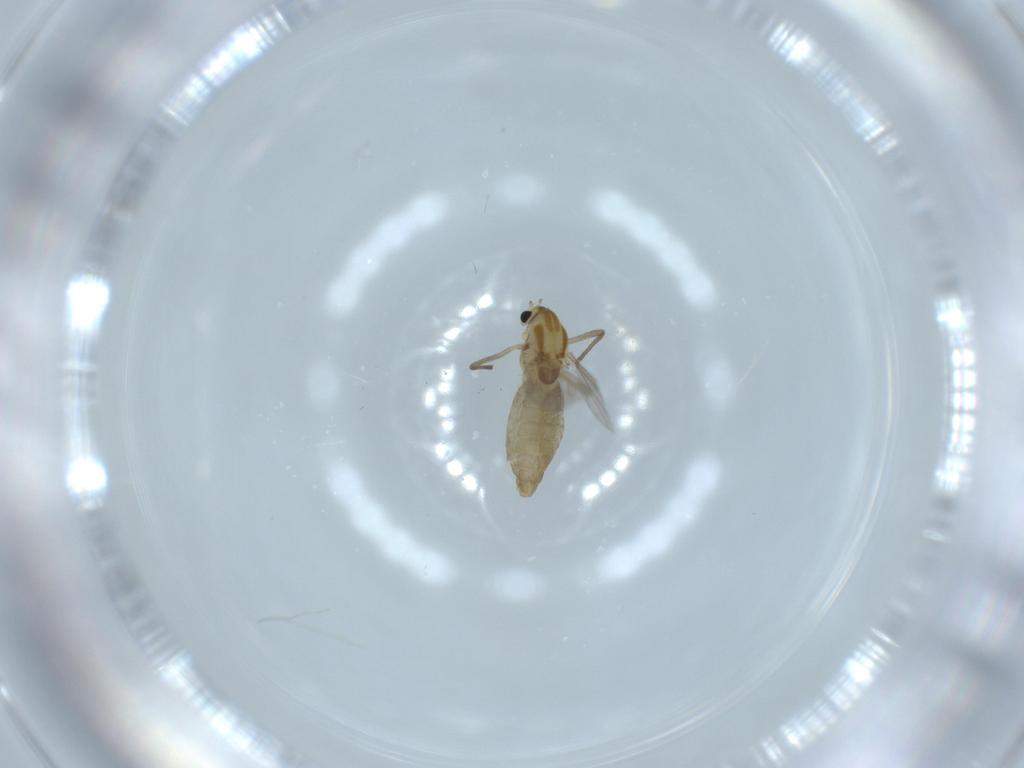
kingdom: Animalia
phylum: Arthropoda
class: Insecta
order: Diptera
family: Chironomidae
